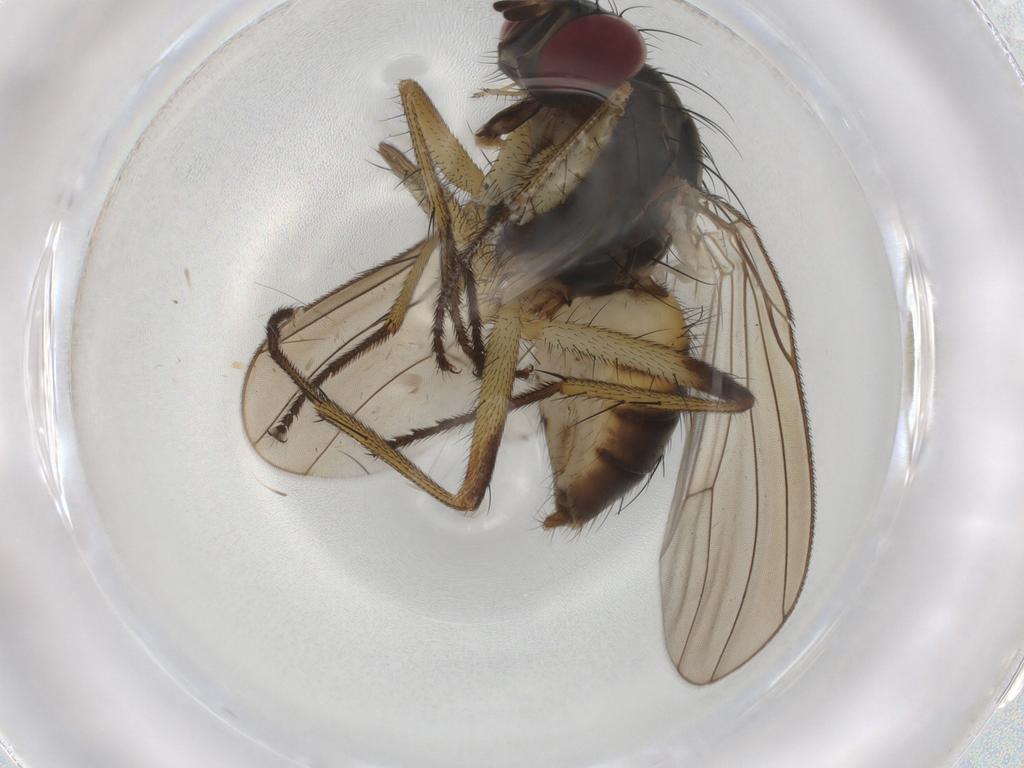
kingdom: Animalia
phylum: Arthropoda
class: Insecta
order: Diptera
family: Muscidae
